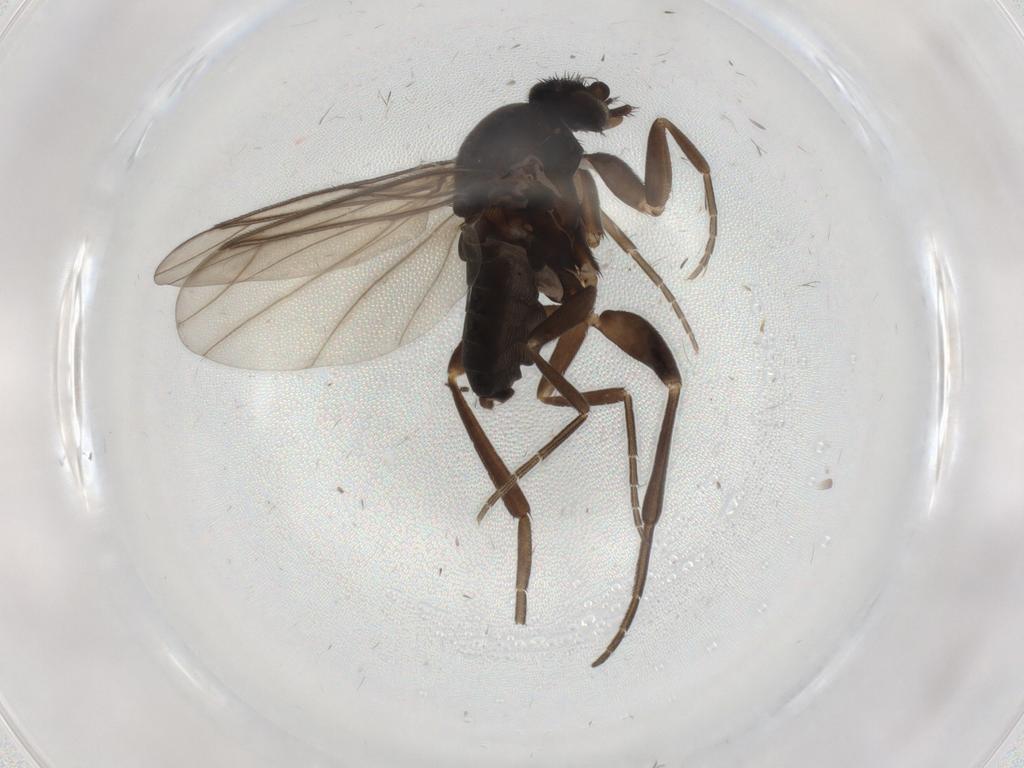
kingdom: Animalia
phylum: Arthropoda
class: Insecta
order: Diptera
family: Phoridae
